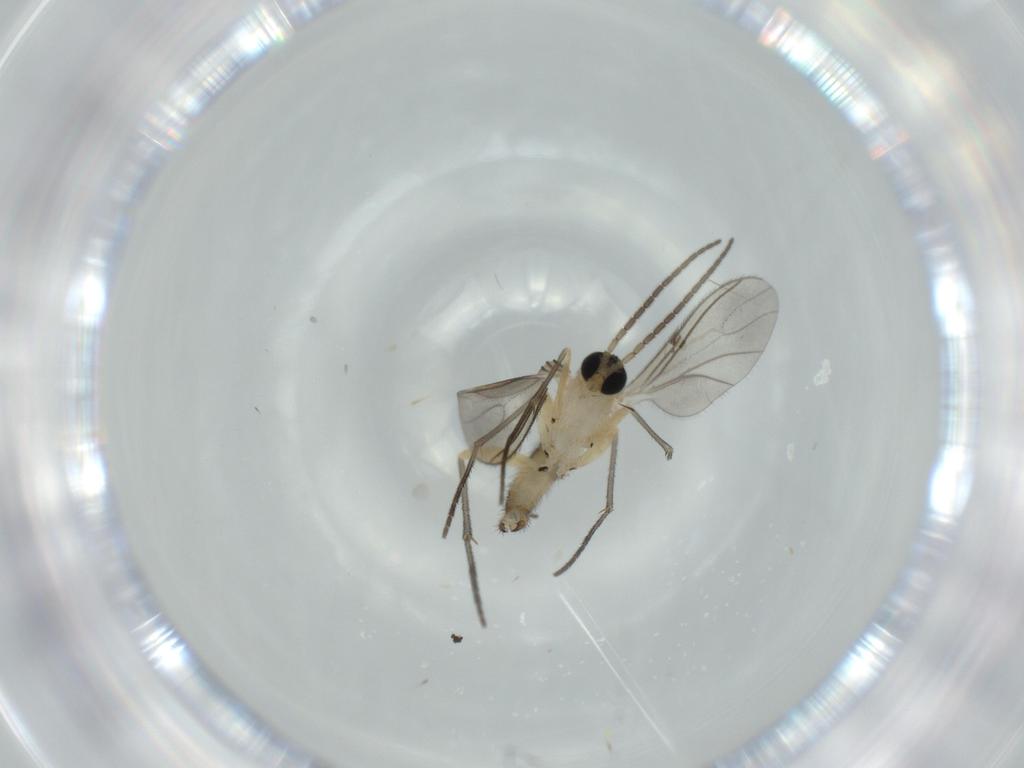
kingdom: Animalia
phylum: Arthropoda
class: Insecta
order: Diptera
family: Sciaridae
